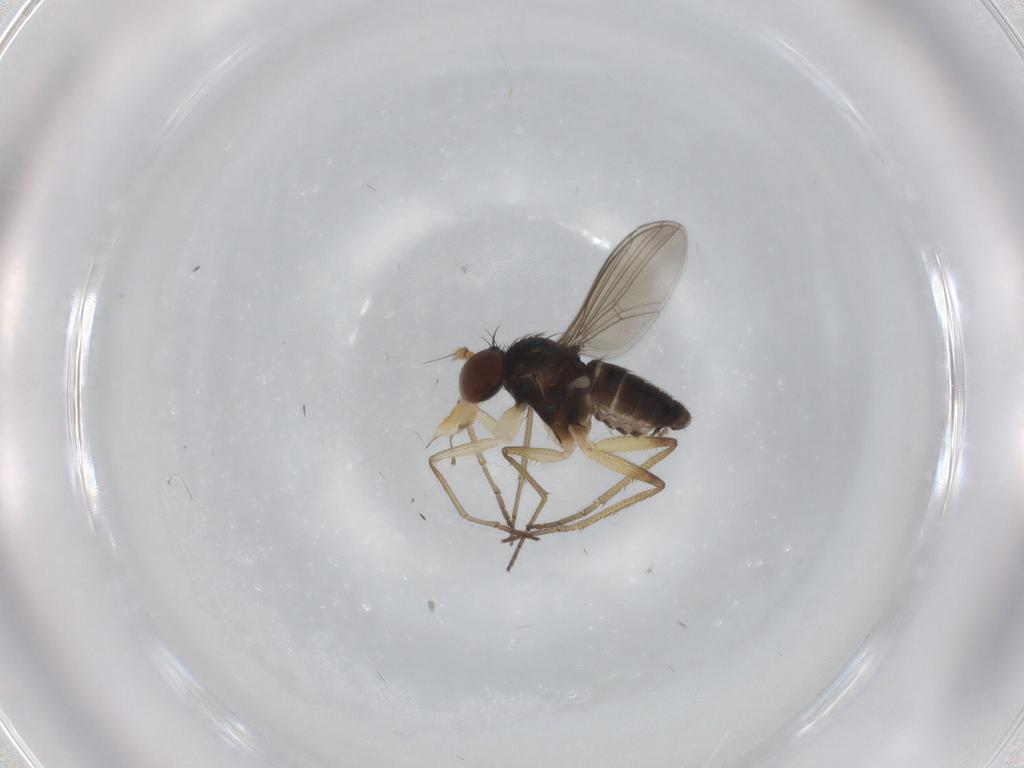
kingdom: Animalia
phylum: Arthropoda
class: Insecta
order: Diptera
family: Dolichopodidae
